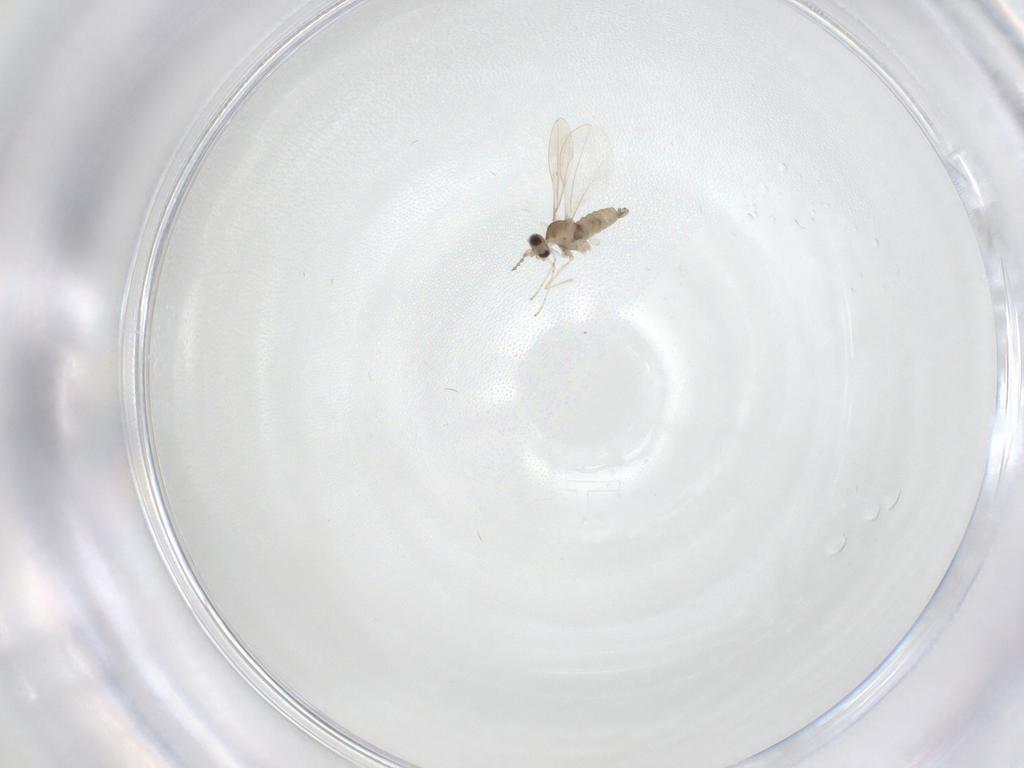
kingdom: Animalia
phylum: Arthropoda
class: Insecta
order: Diptera
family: Cecidomyiidae
